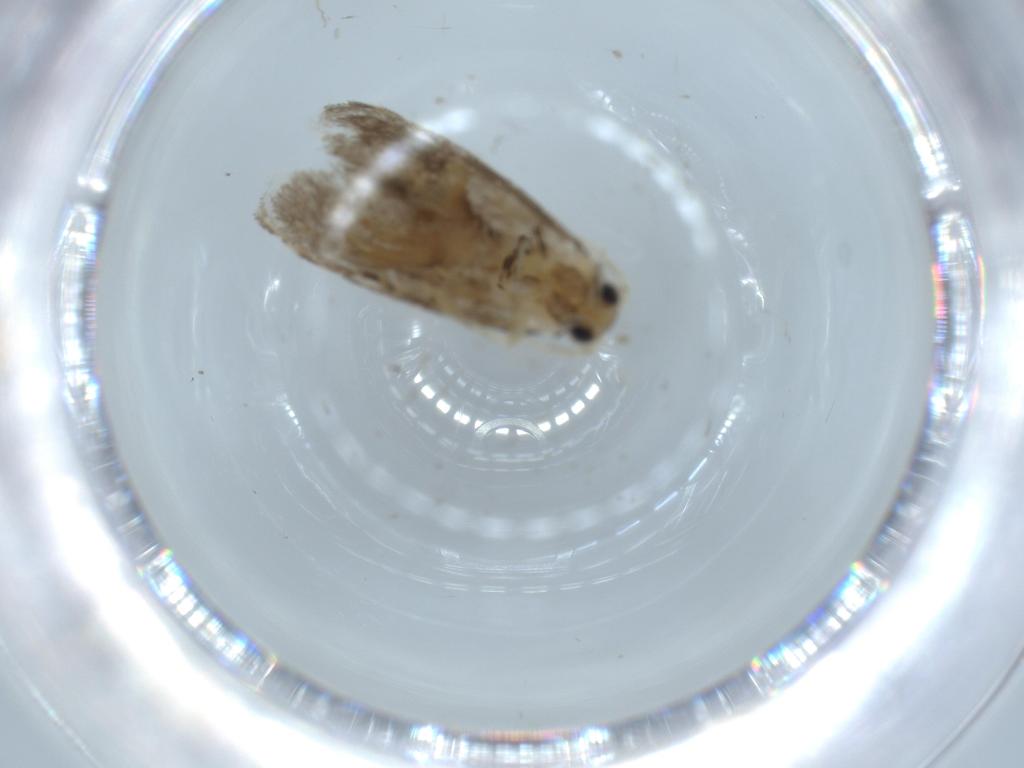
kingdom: Animalia
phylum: Arthropoda
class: Insecta
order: Lepidoptera
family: Tineidae
